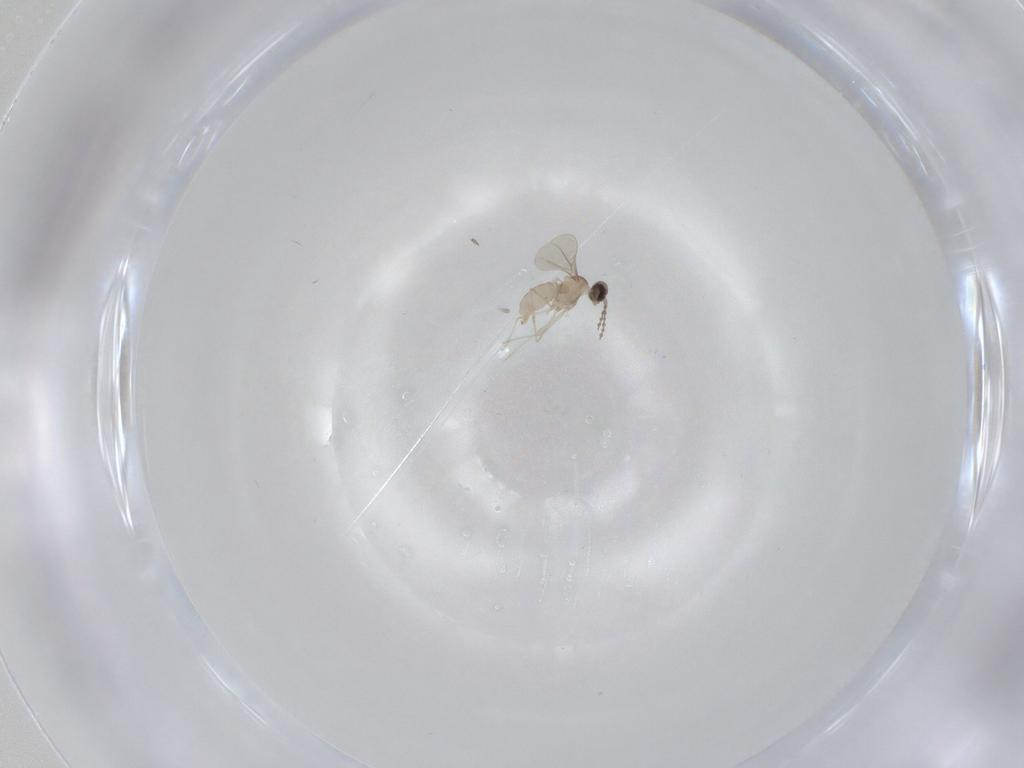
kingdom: Animalia
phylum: Arthropoda
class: Insecta
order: Diptera
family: Cecidomyiidae
